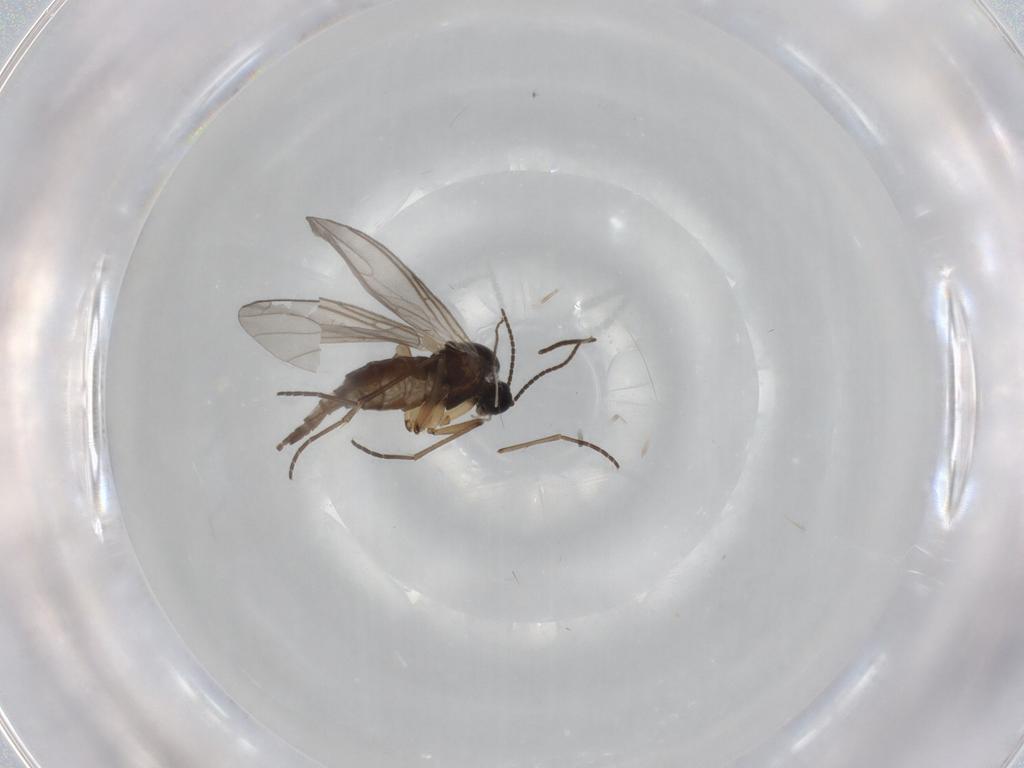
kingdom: Animalia
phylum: Arthropoda
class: Insecta
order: Diptera
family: Sciaridae
